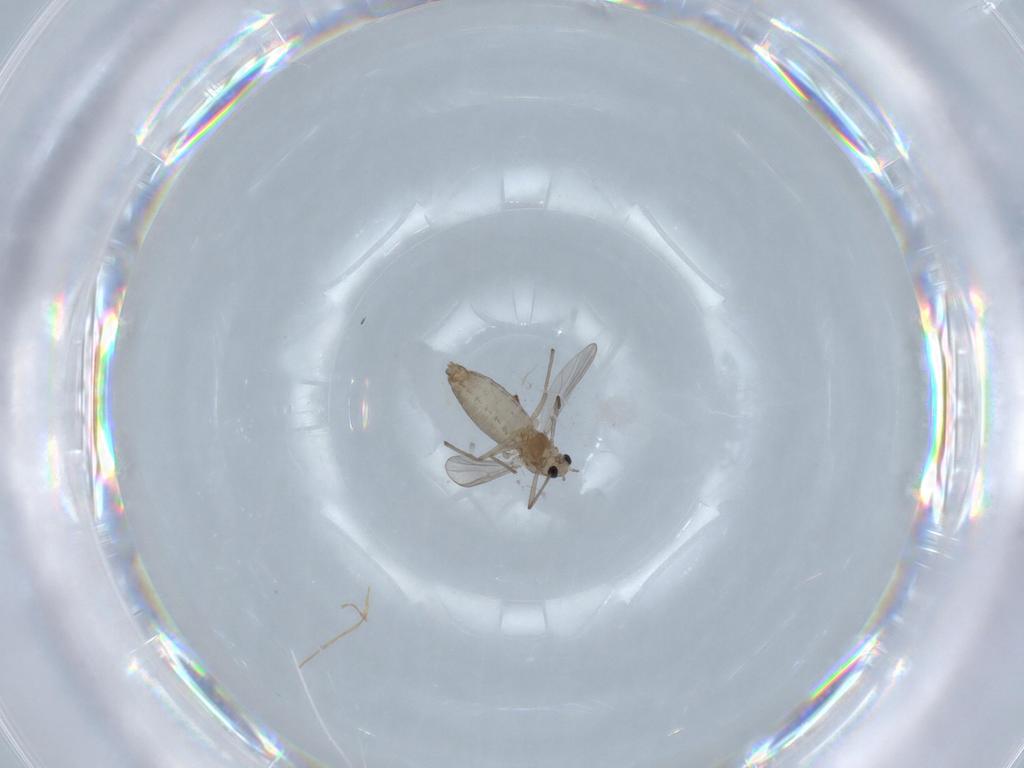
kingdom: Animalia
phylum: Arthropoda
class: Insecta
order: Diptera
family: Chironomidae
